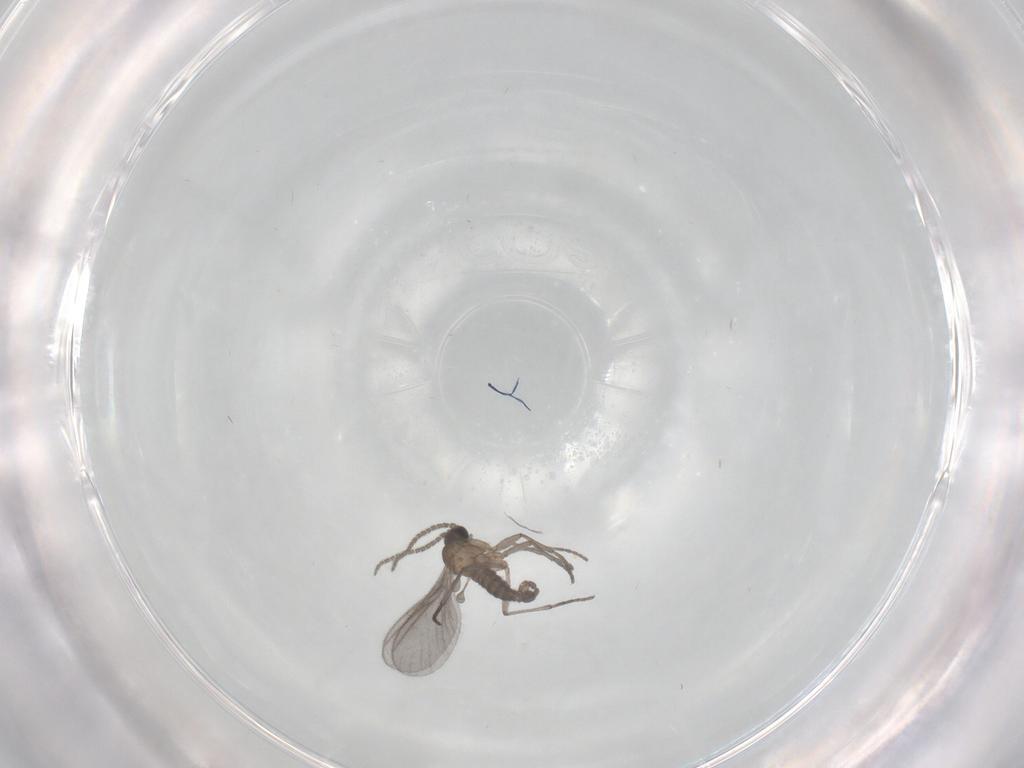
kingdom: Animalia
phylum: Arthropoda
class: Insecta
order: Diptera
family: Sciaridae
